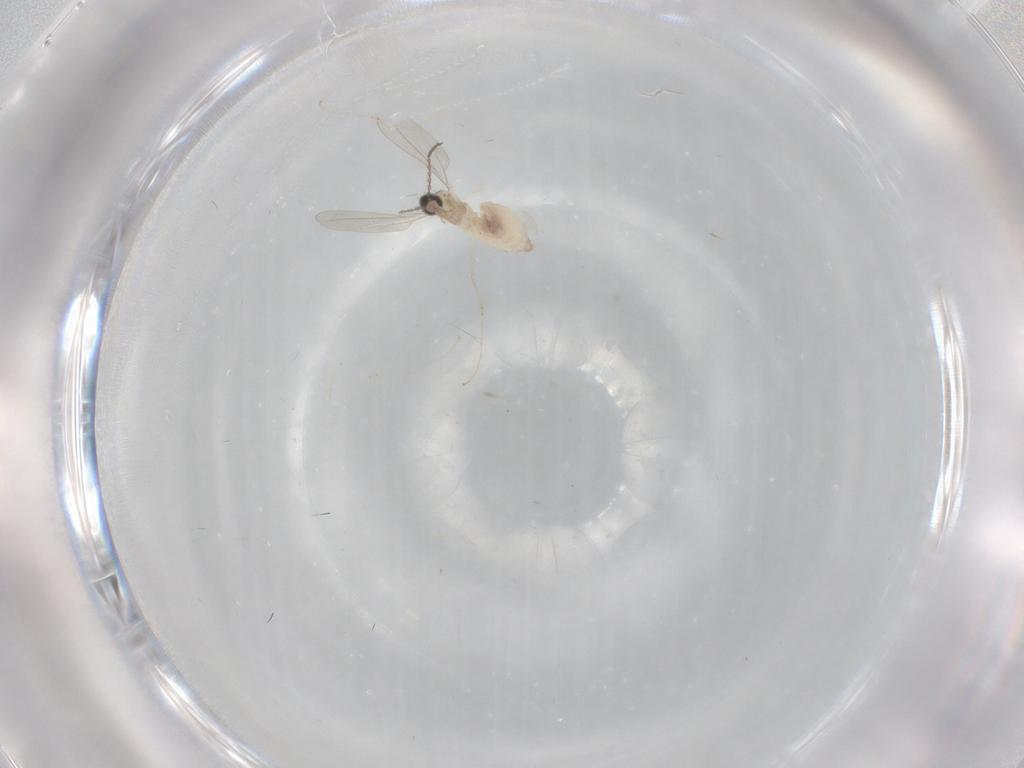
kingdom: Animalia
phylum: Arthropoda
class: Insecta
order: Diptera
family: Cecidomyiidae
